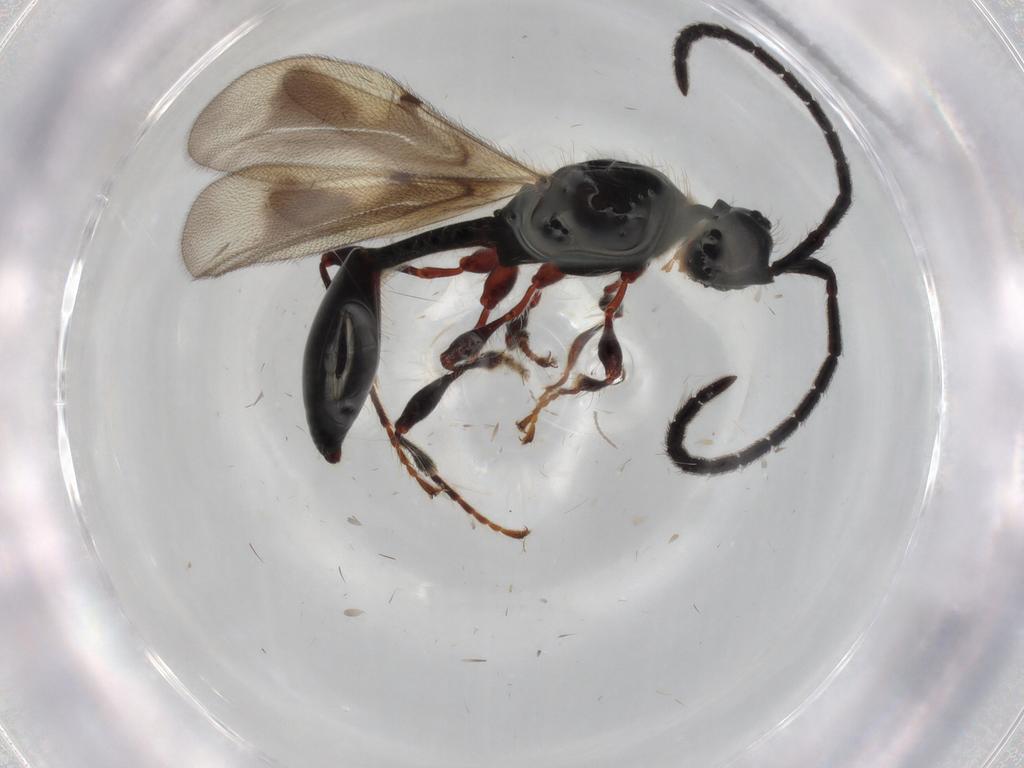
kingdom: Animalia
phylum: Arthropoda
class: Insecta
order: Hymenoptera
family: Diapriidae
